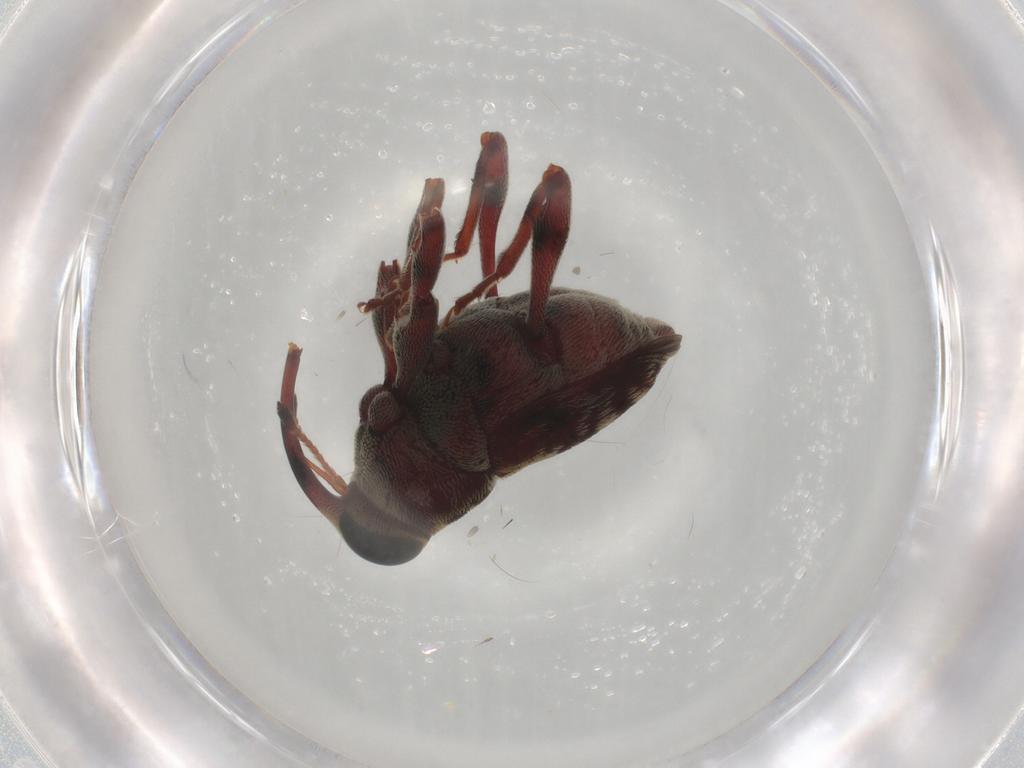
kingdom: Animalia
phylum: Arthropoda
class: Insecta
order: Coleoptera
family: Curculionidae
